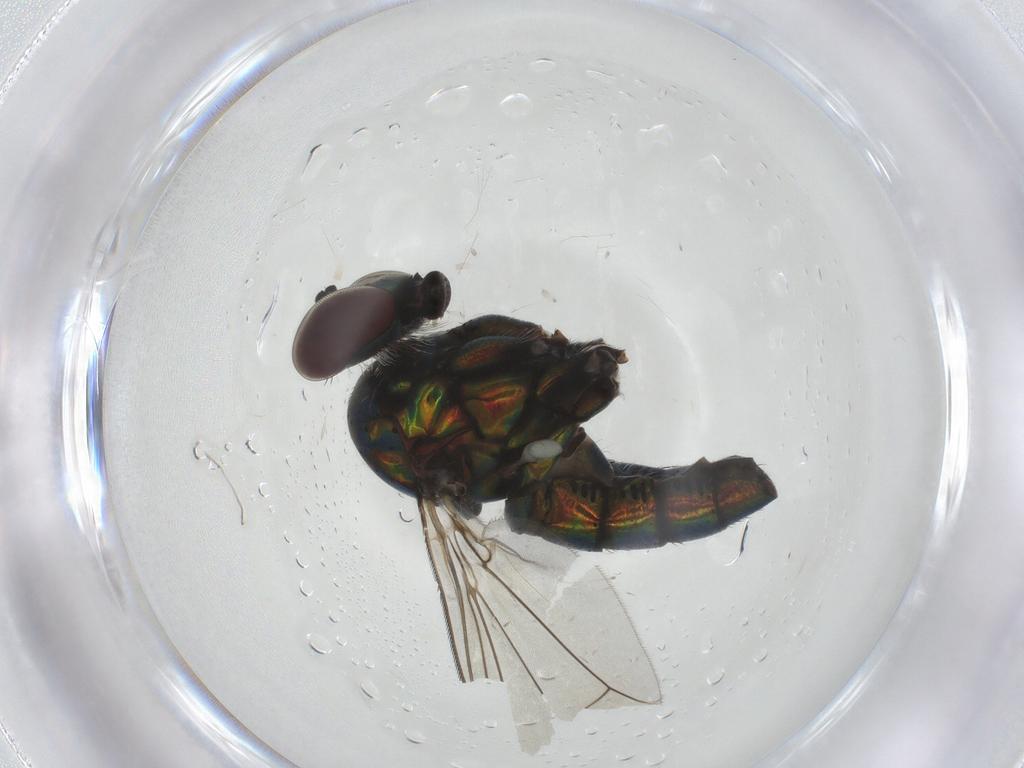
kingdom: Animalia
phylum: Arthropoda
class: Insecta
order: Diptera
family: Dolichopodidae
